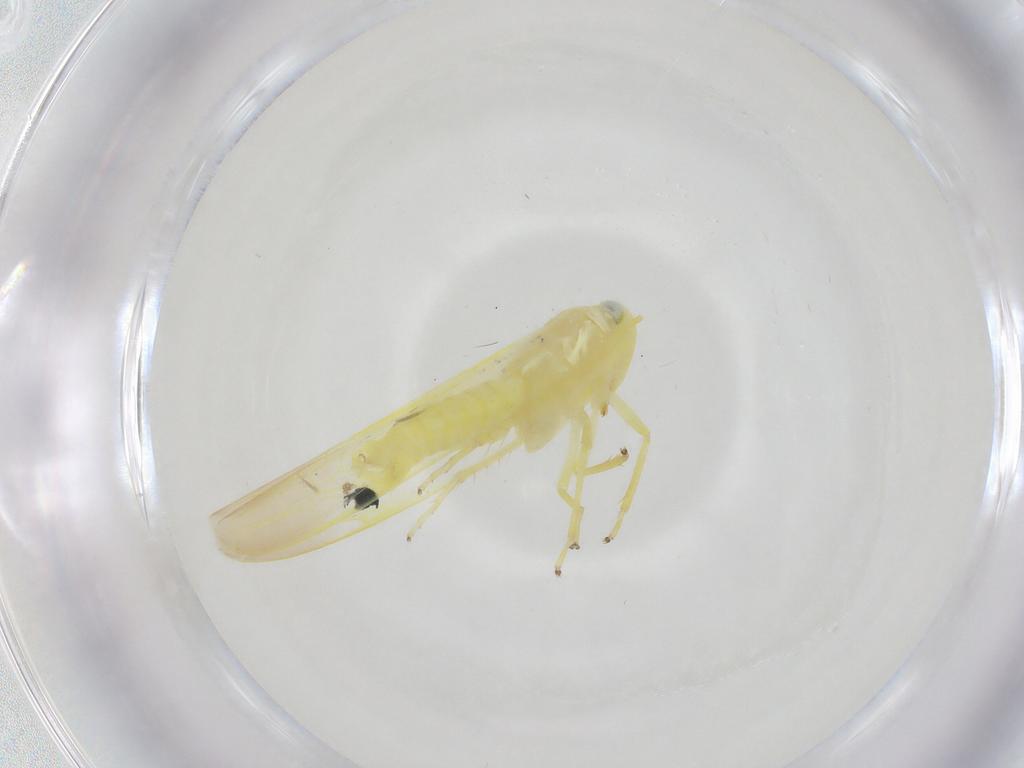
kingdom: Animalia
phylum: Arthropoda
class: Insecta
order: Hemiptera
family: Cicadellidae
